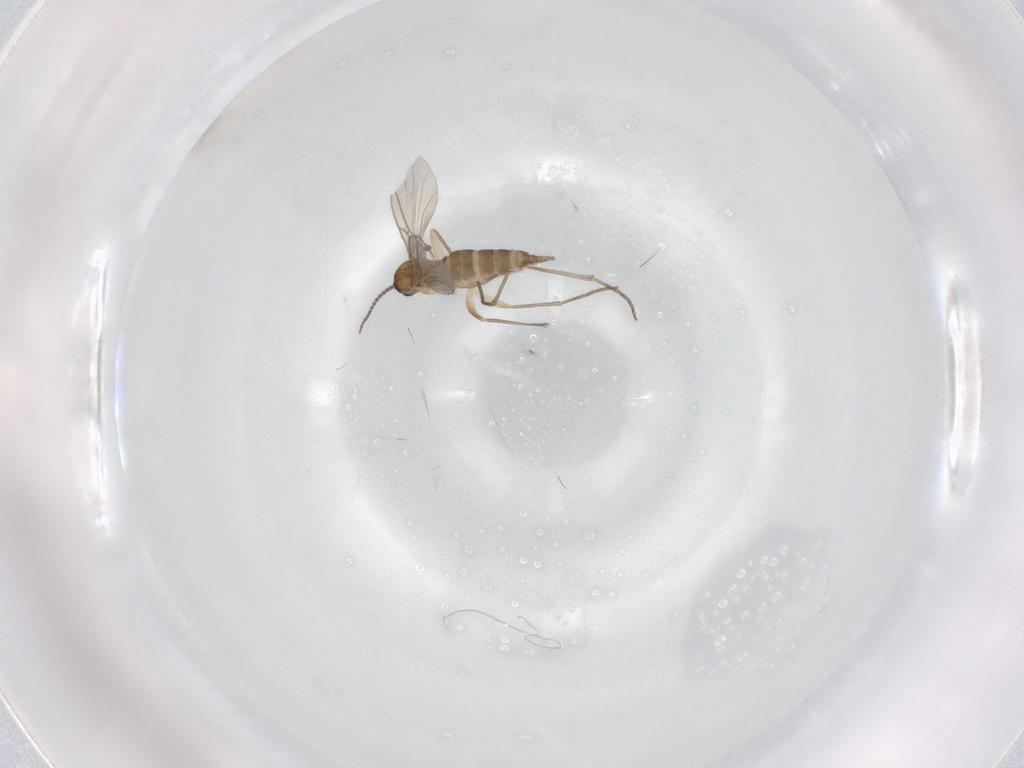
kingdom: Animalia
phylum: Arthropoda
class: Insecta
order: Diptera
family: Sciaridae
